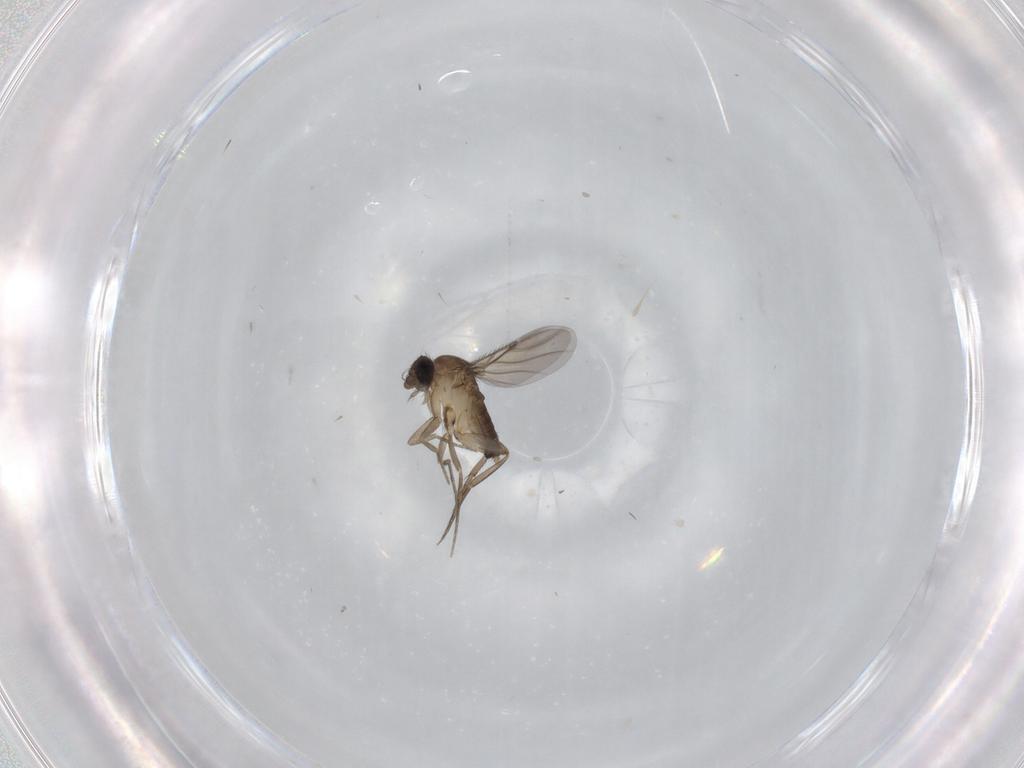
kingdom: Animalia
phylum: Arthropoda
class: Insecta
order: Diptera
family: Phoridae
